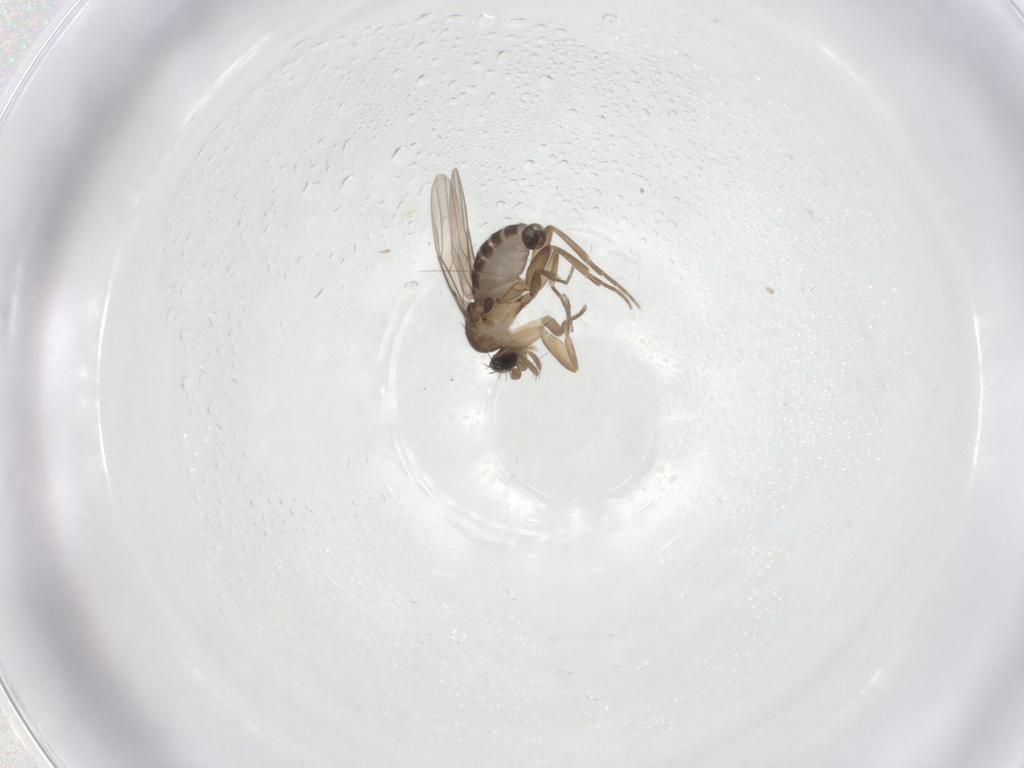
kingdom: Animalia
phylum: Arthropoda
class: Insecta
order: Diptera
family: Phoridae
